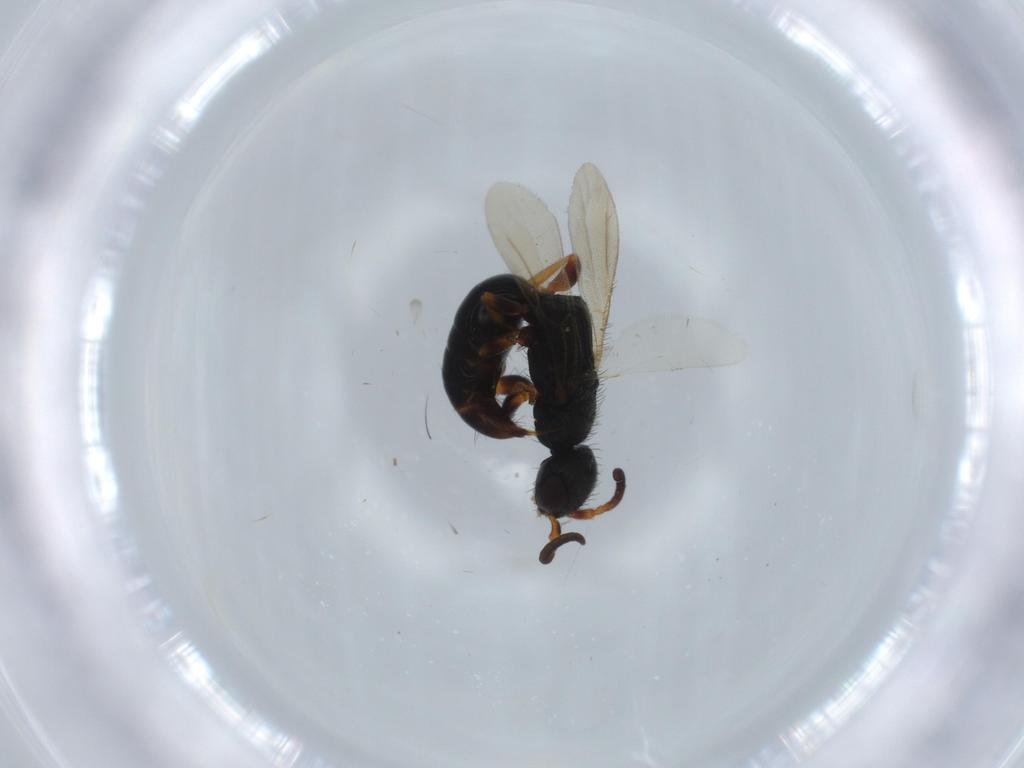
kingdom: Animalia
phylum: Arthropoda
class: Insecta
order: Hymenoptera
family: Bethylidae
